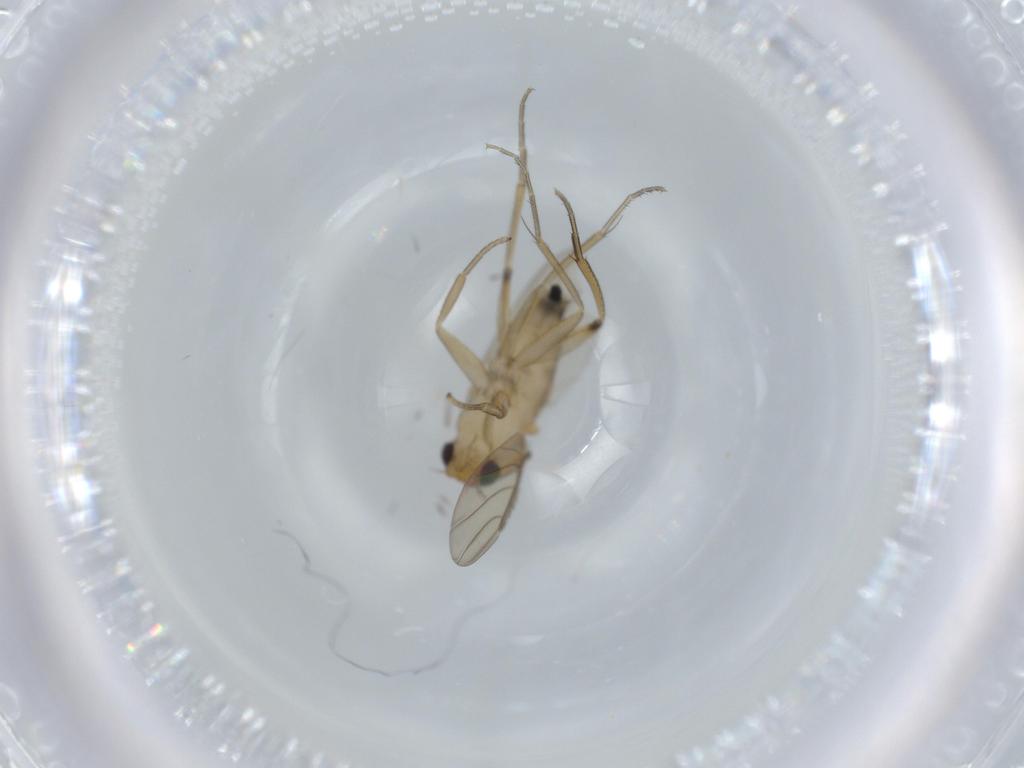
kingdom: Animalia
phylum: Arthropoda
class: Insecta
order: Diptera
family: Phoridae
